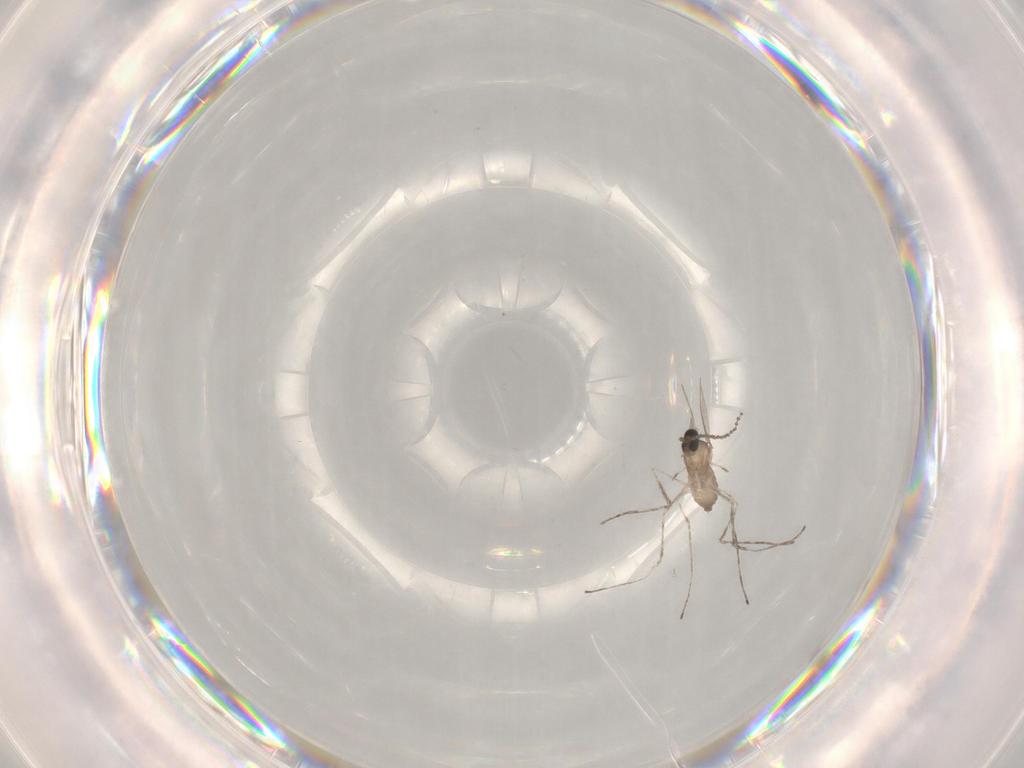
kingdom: Animalia
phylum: Arthropoda
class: Insecta
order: Diptera
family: Cecidomyiidae
